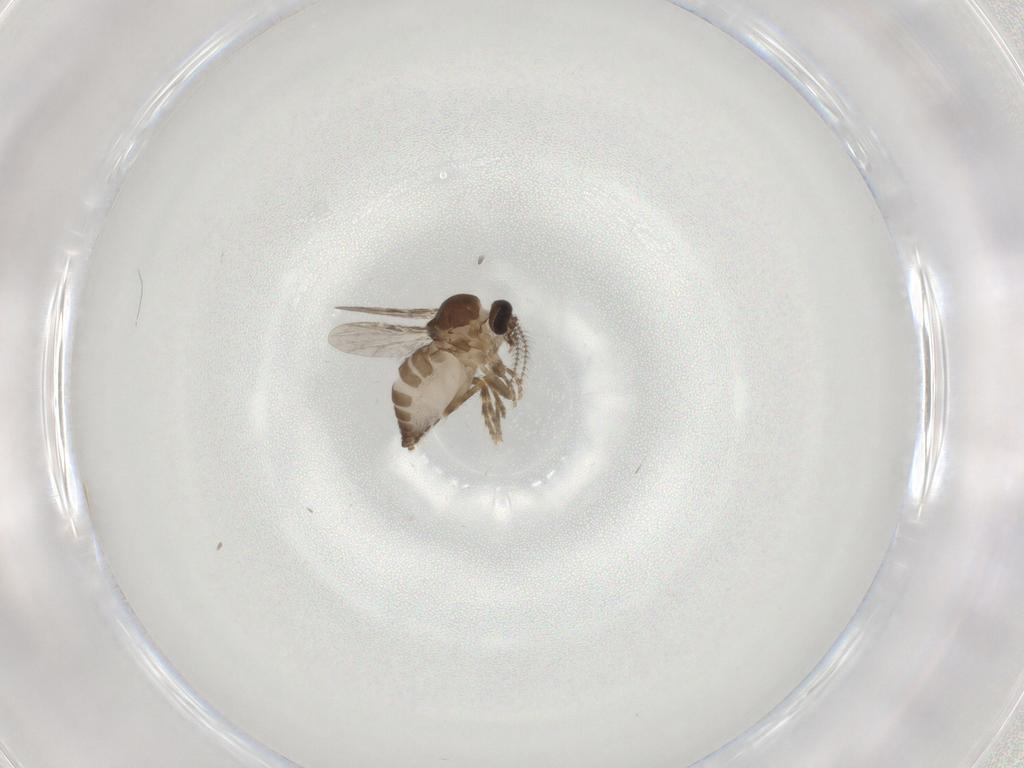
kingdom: Animalia
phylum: Arthropoda
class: Insecta
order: Diptera
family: Ceratopogonidae
